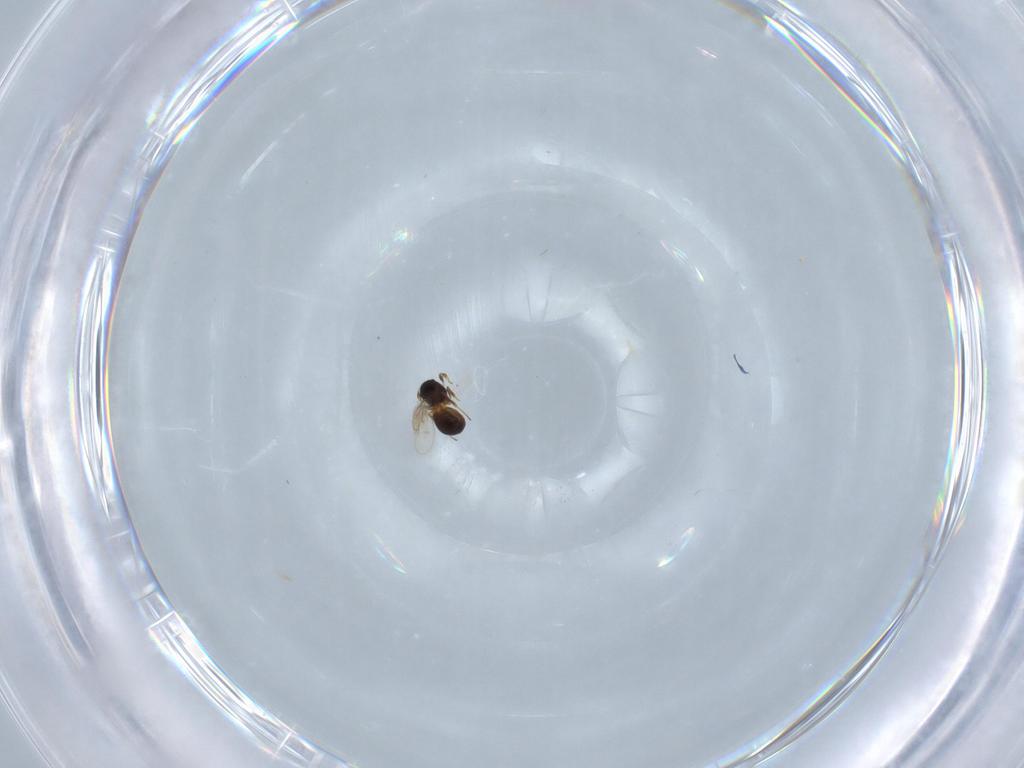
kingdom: Animalia
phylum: Arthropoda
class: Insecta
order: Hymenoptera
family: Scelionidae
